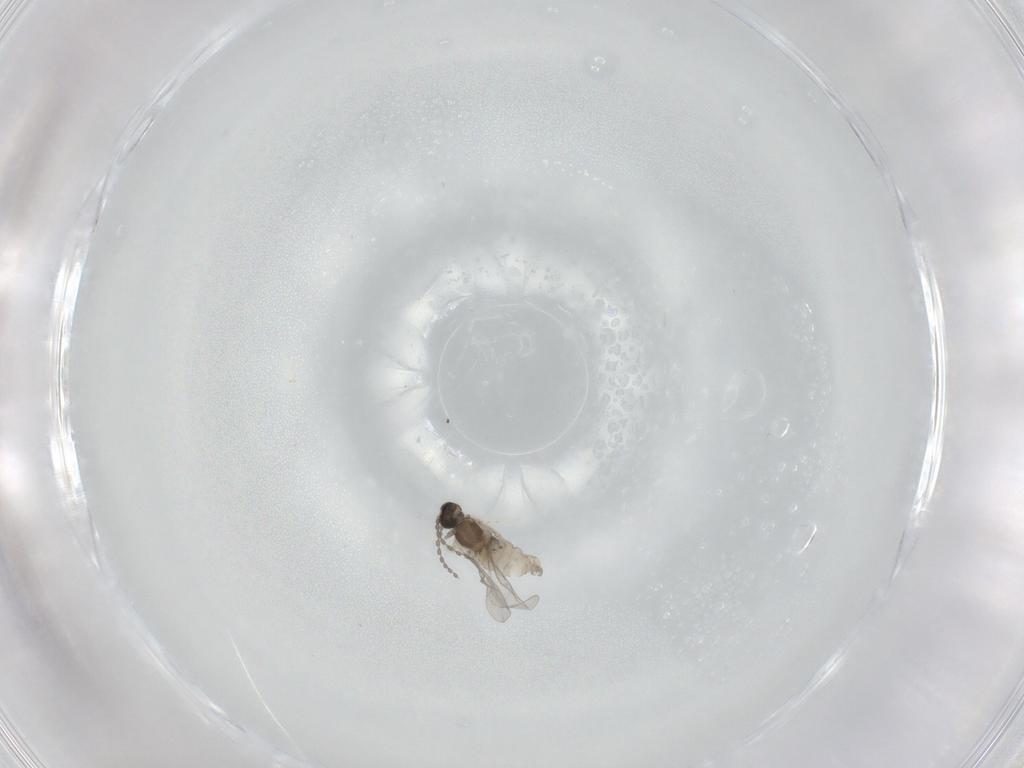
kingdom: Animalia
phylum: Arthropoda
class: Insecta
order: Diptera
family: Cecidomyiidae
